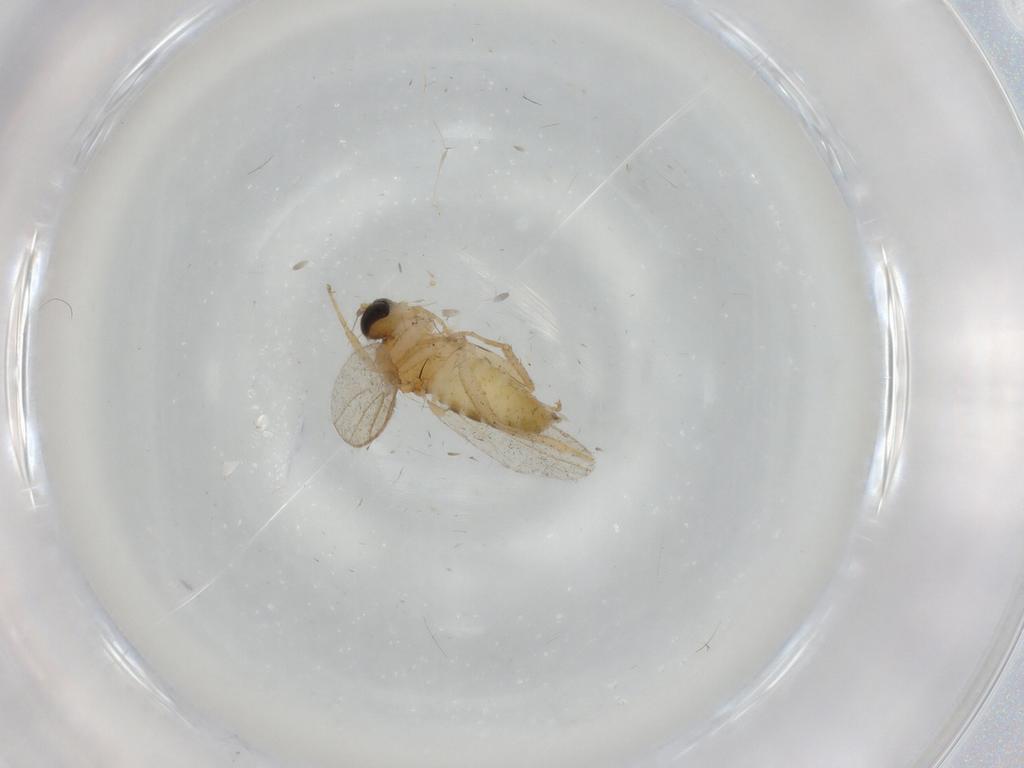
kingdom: Animalia
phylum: Arthropoda
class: Insecta
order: Diptera
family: Hybotidae
